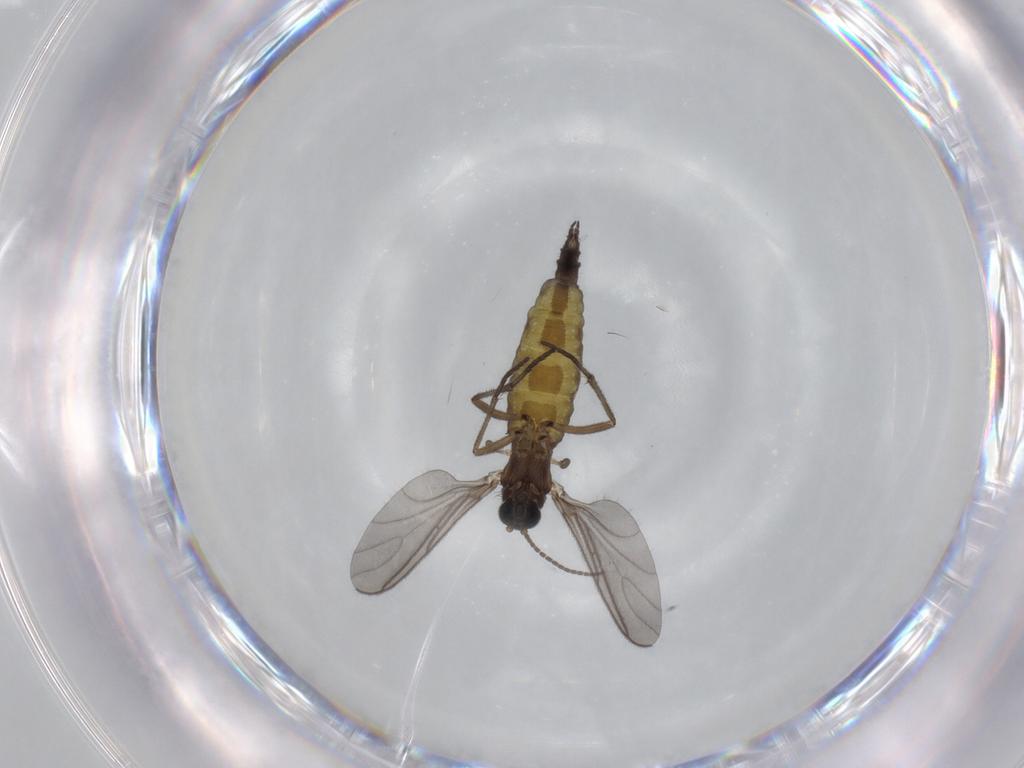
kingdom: Animalia
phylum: Arthropoda
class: Insecta
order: Diptera
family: Sciaridae
